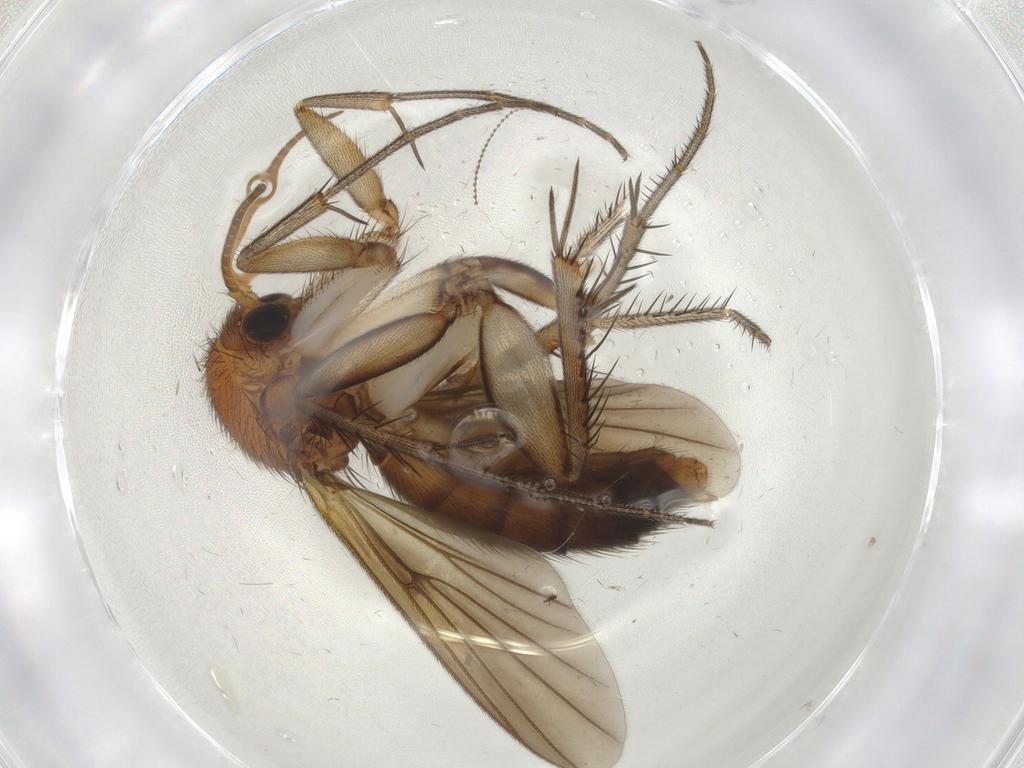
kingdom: Animalia
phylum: Arthropoda
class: Insecta
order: Diptera
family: Mycetophilidae
